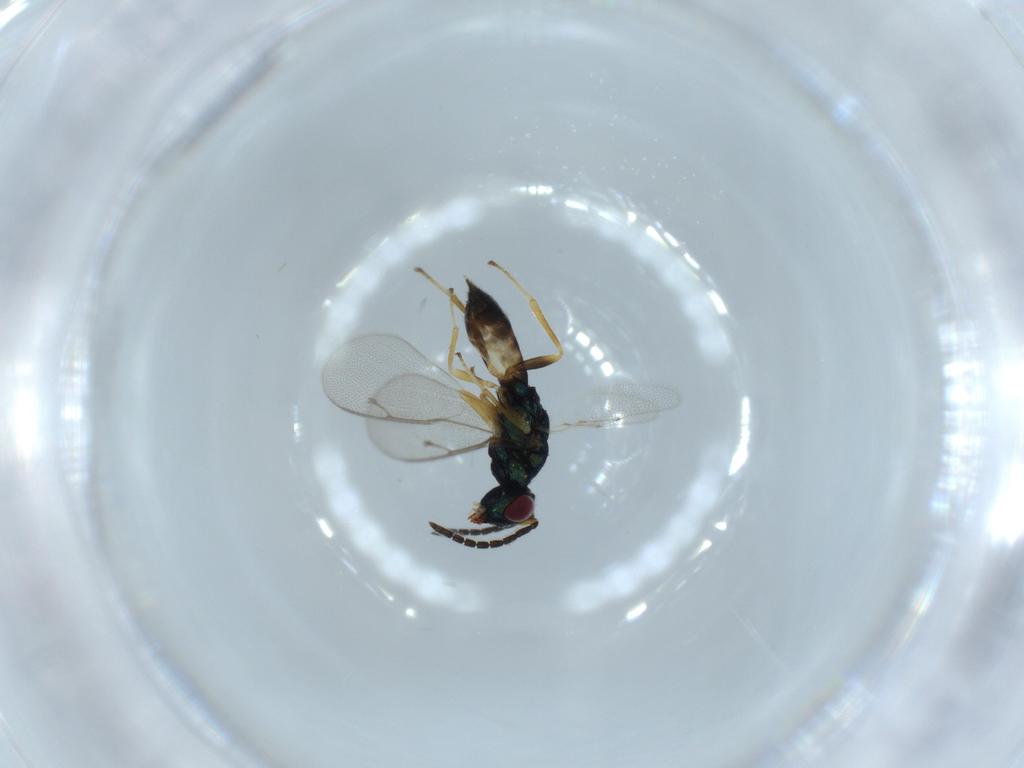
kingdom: Animalia
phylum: Arthropoda
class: Insecta
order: Hymenoptera
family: Pteromalidae
